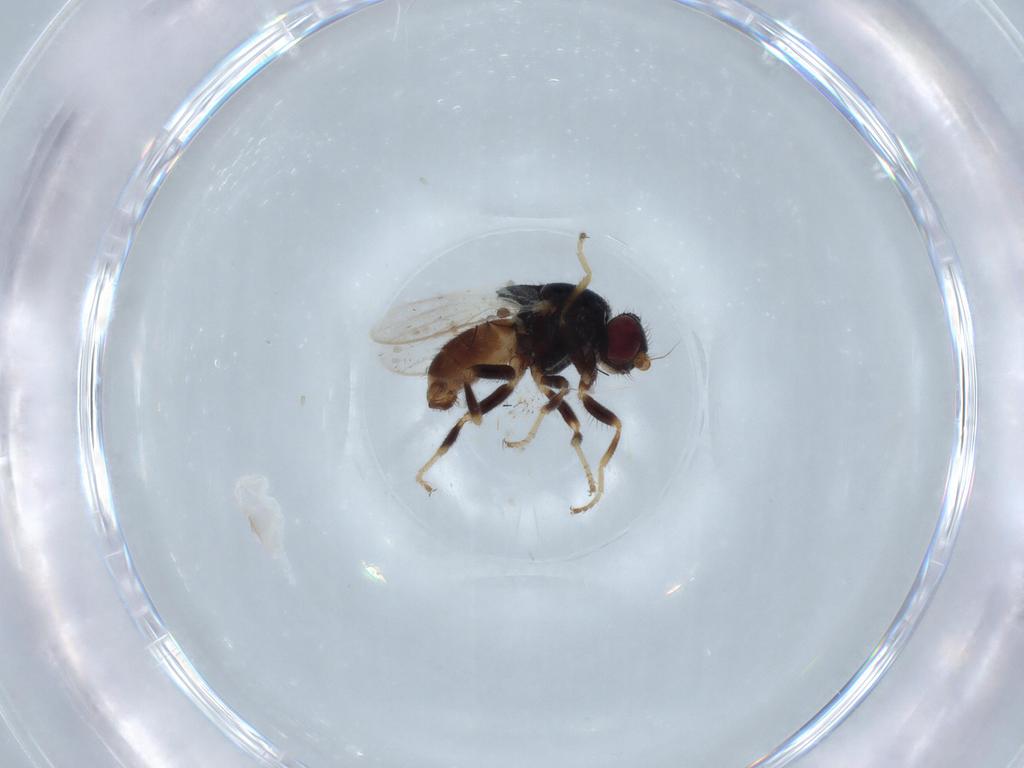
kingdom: Animalia
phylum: Arthropoda
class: Insecta
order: Diptera
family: Chloropidae
